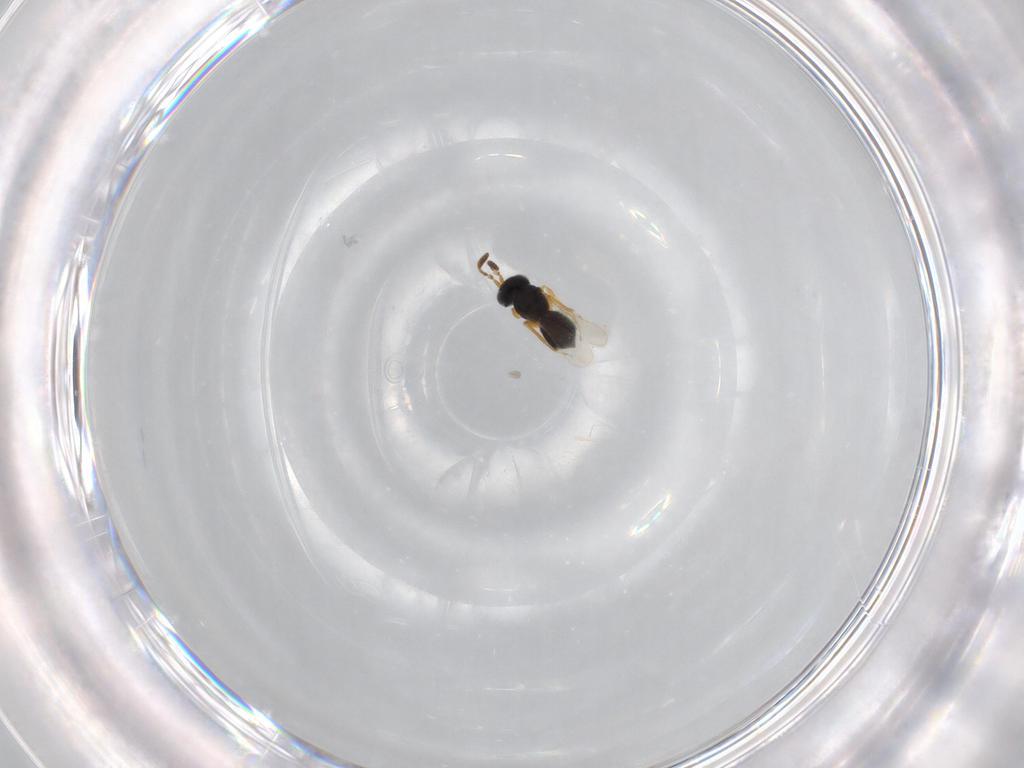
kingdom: Animalia
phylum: Arthropoda
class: Insecta
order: Hymenoptera
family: Scelionidae
